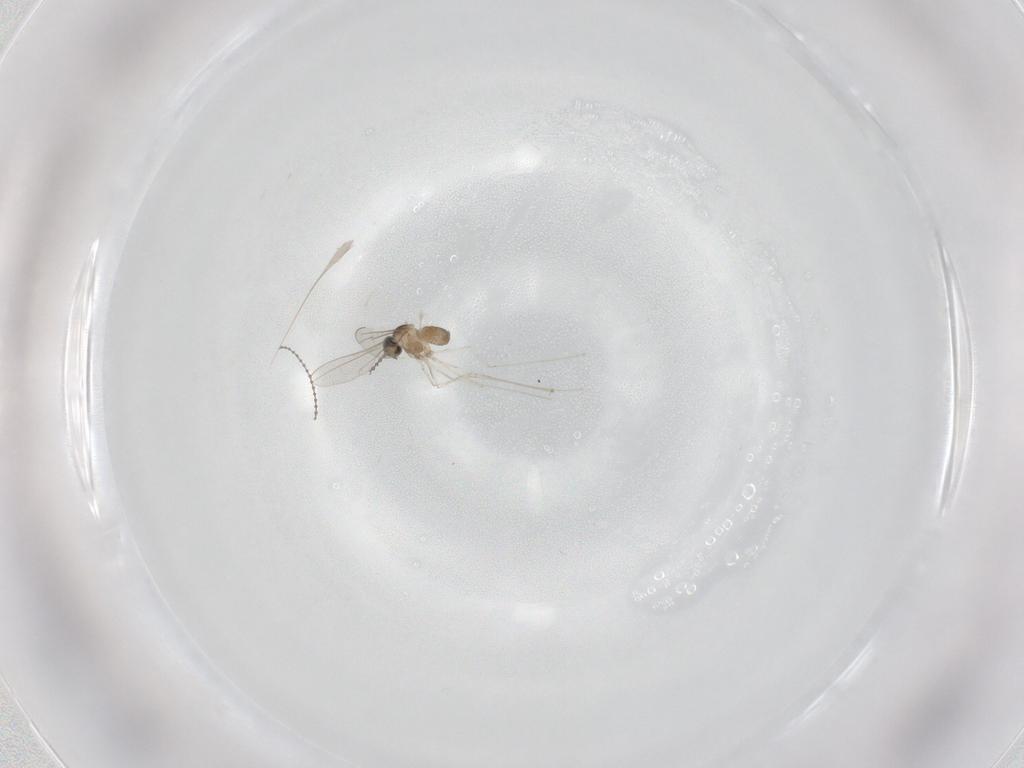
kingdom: Animalia
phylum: Arthropoda
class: Insecta
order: Diptera
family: Cecidomyiidae
